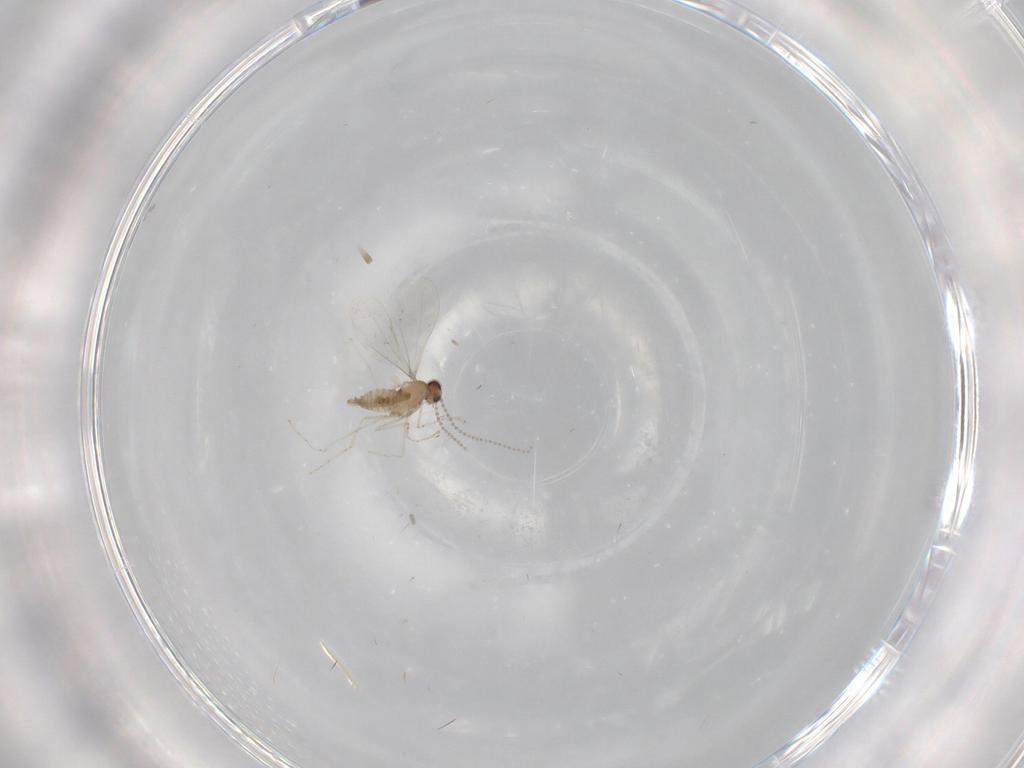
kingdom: Animalia
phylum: Arthropoda
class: Insecta
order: Diptera
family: Cecidomyiidae
